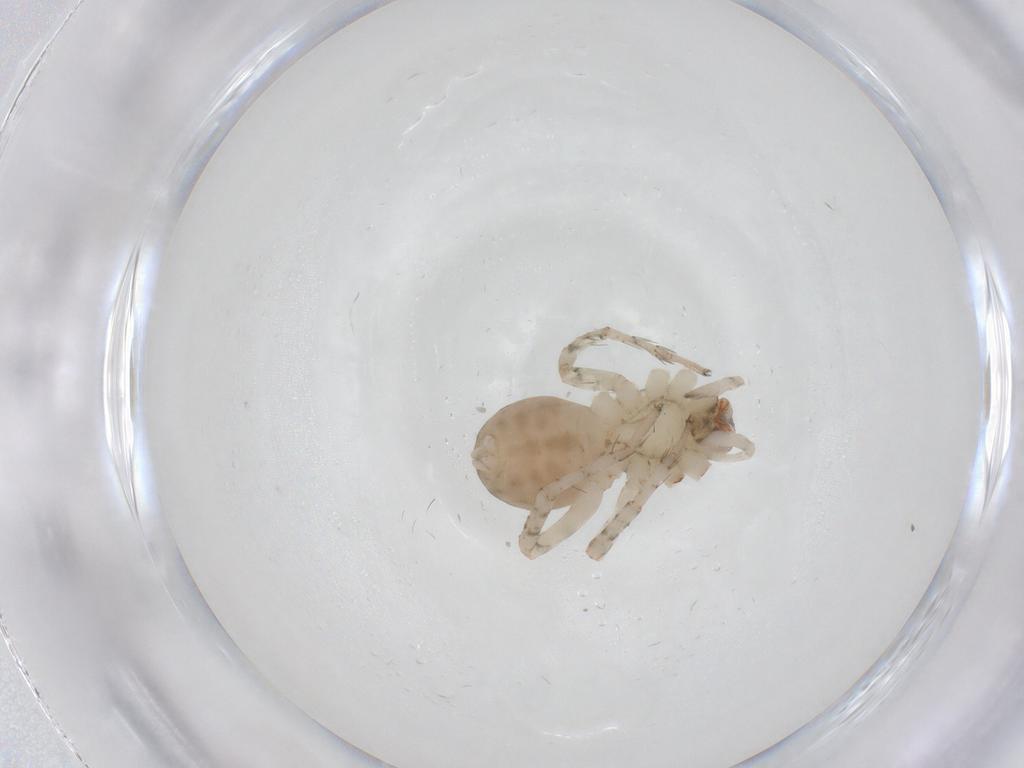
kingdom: Animalia
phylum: Arthropoda
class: Arachnida
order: Araneae
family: Anyphaenidae
